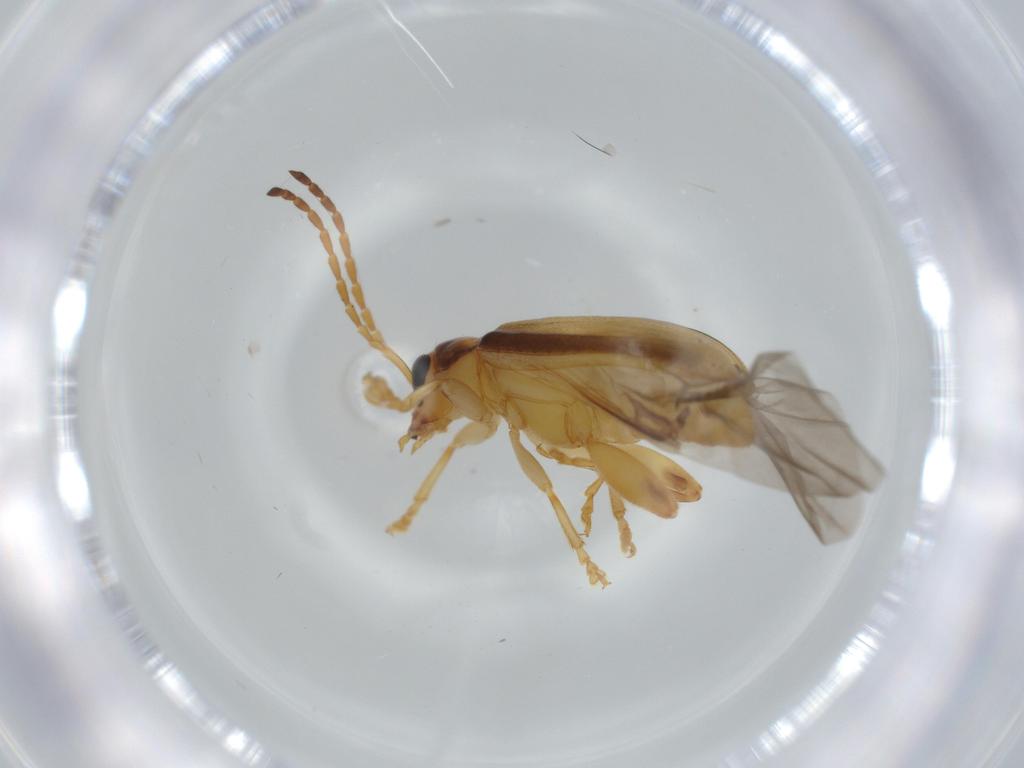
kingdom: Animalia
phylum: Arthropoda
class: Insecta
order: Coleoptera
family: Chrysomelidae
